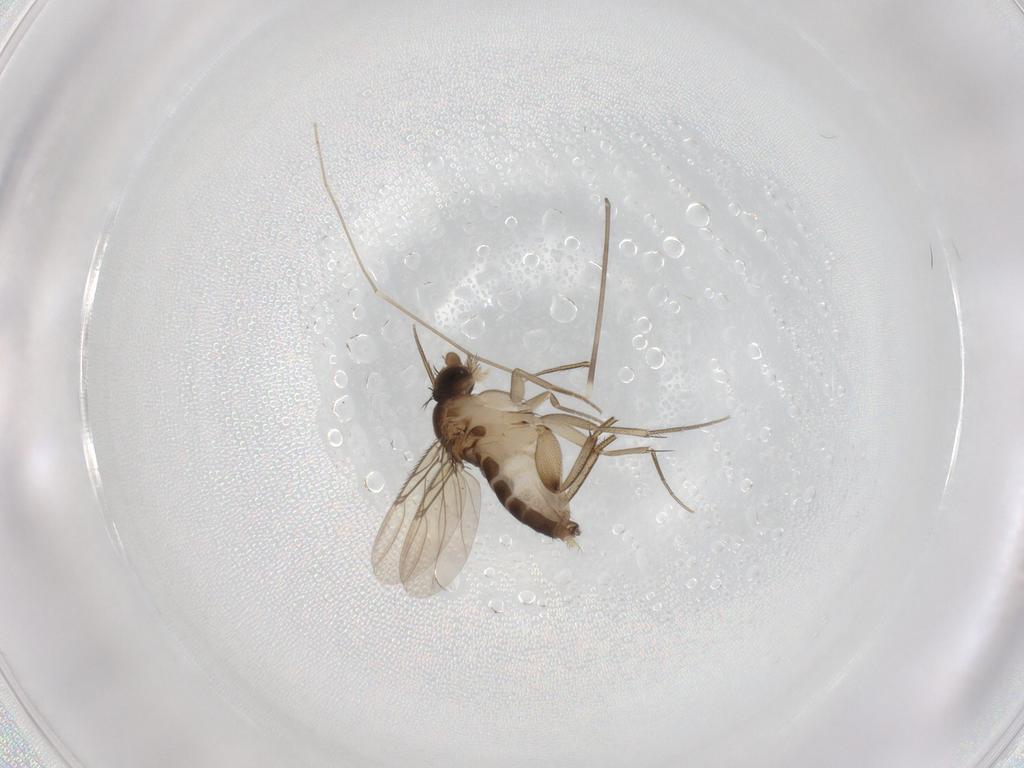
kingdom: Animalia
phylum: Arthropoda
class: Insecta
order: Diptera
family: Phoridae
